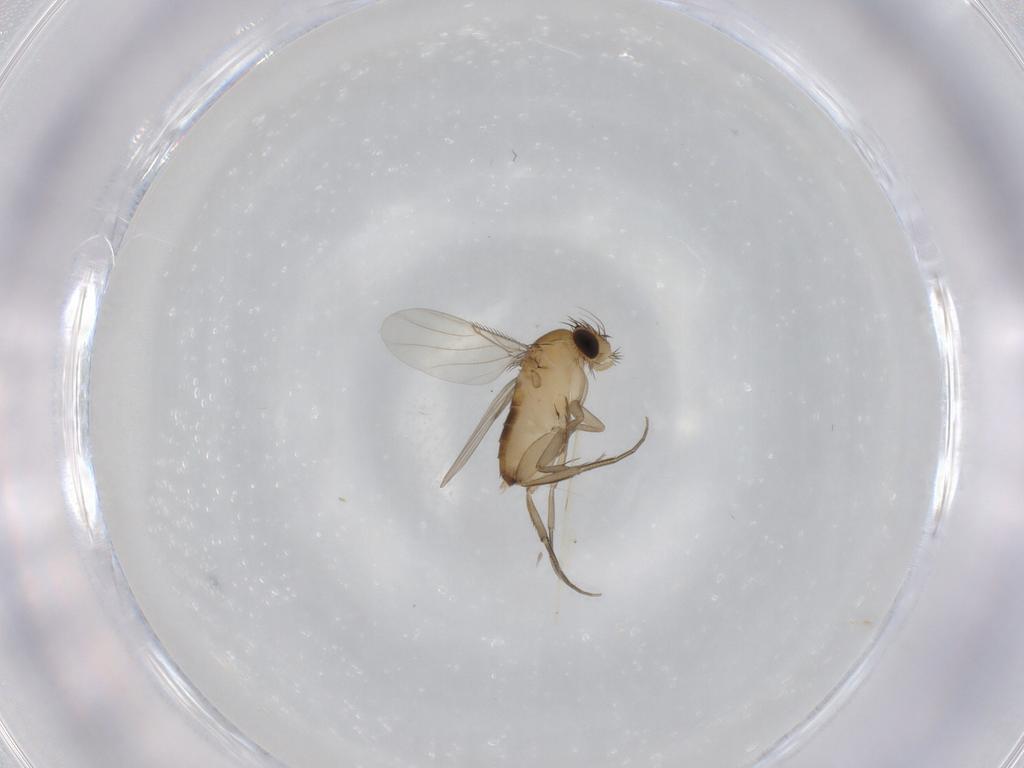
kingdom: Animalia
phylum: Arthropoda
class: Insecta
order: Diptera
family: Phoridae
